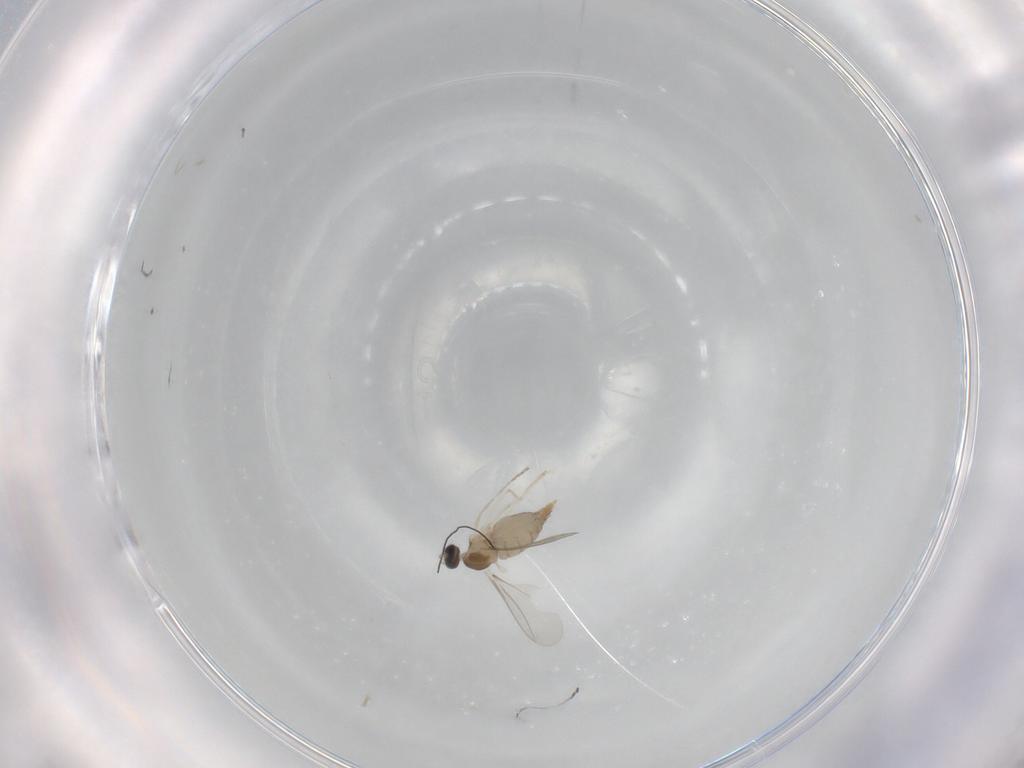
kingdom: Animalia
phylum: Arthropoda
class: Insecta
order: Diptera
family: Cecidomyiidae
